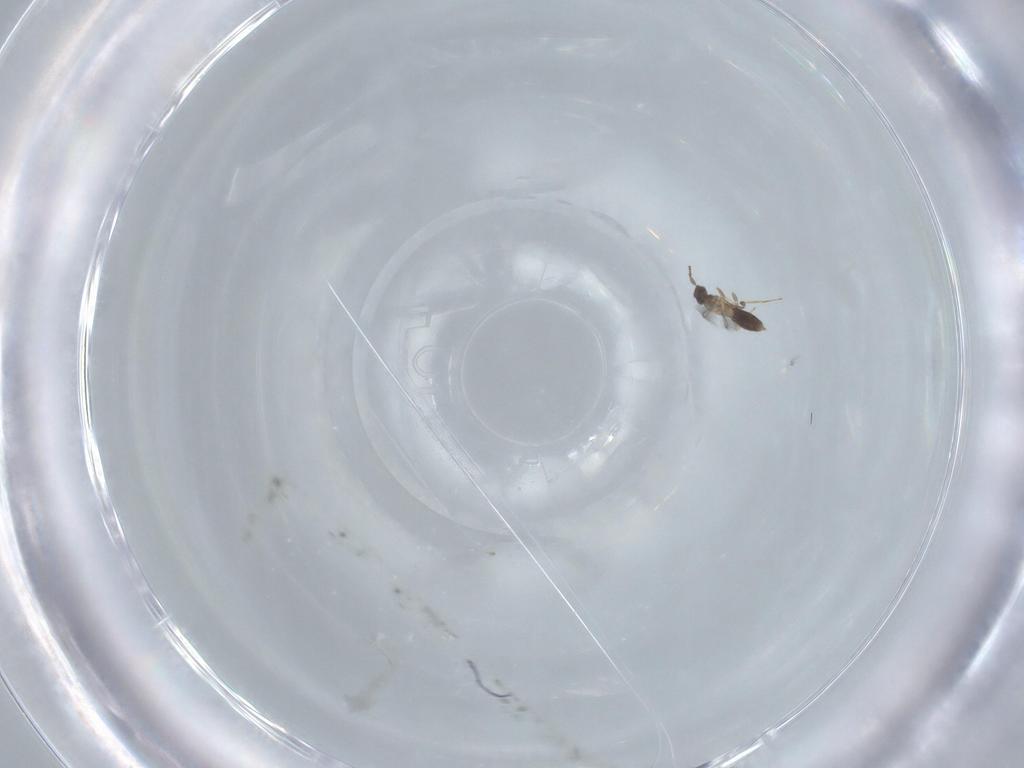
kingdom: Animalia
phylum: Arthropoda
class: Insecta
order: Hymenoptera
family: Mymaridae
